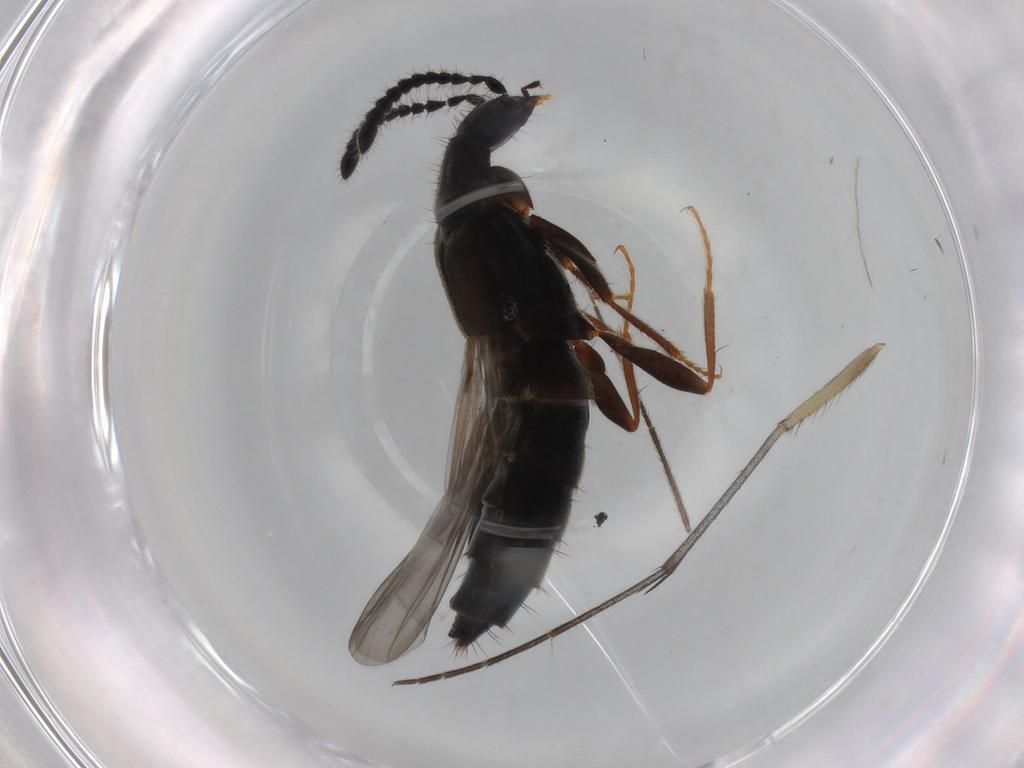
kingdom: Animalia
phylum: Arthropoda
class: Insecta
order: Coleoptera
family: Staphylinidae
